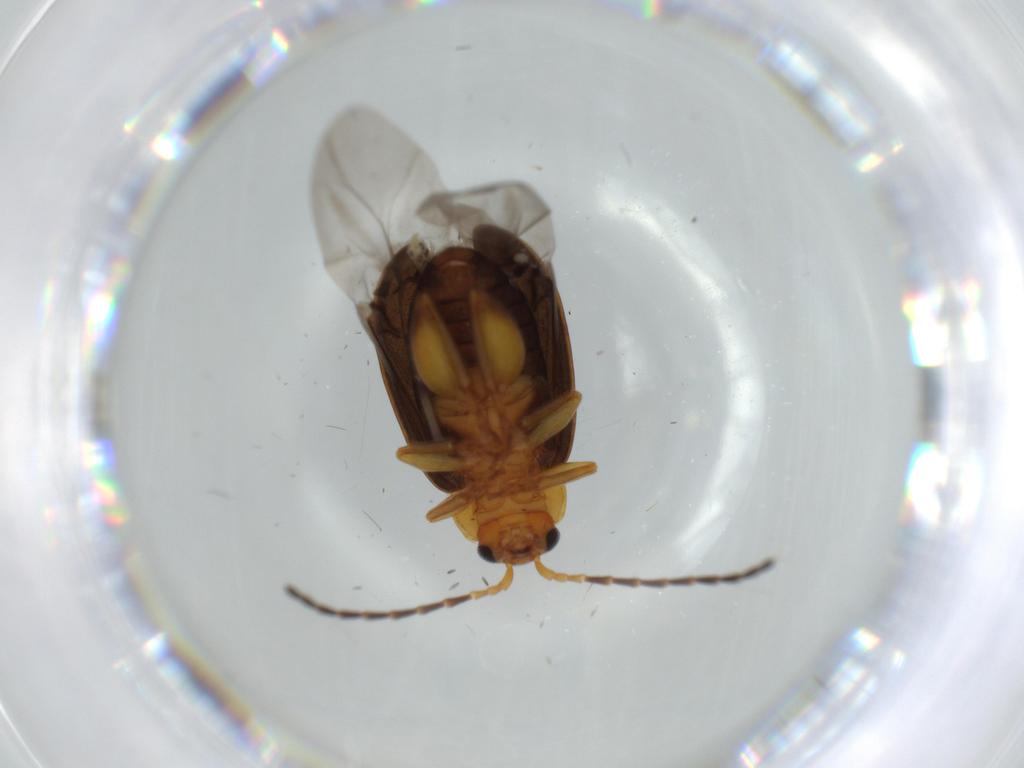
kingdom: Animalia
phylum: Arthropoda
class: Insecta
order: Coleoptera
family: Chrysomelidae
